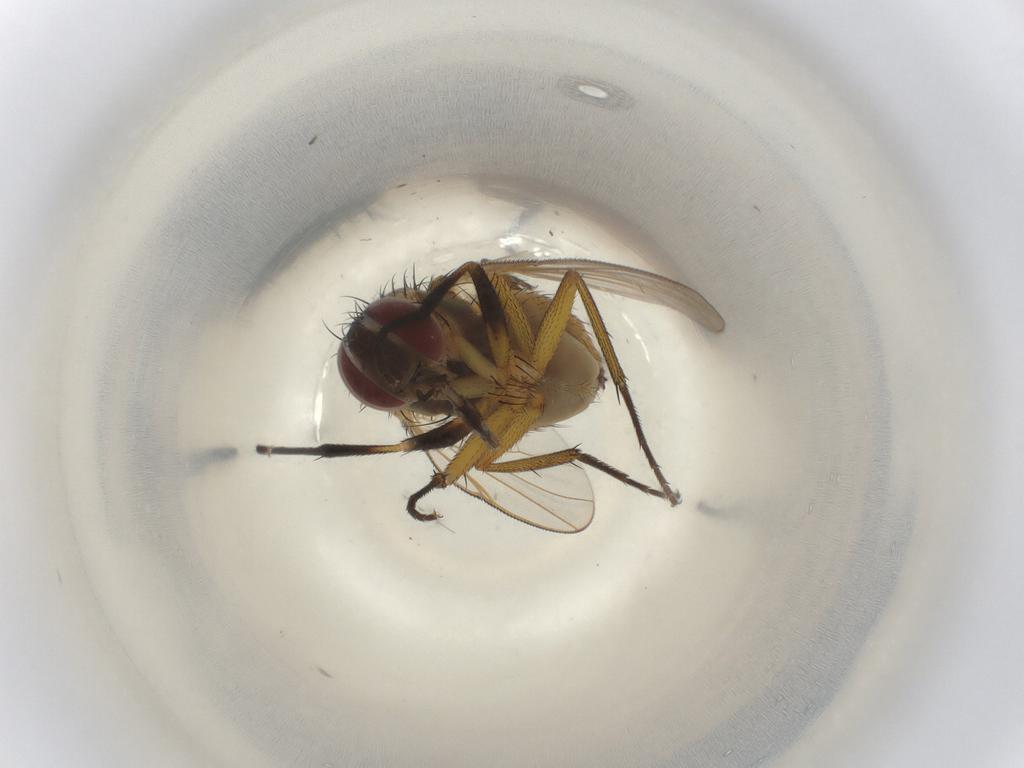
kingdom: Animalia
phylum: Arthropoda
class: Insecta
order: Diptera
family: Muscidae
